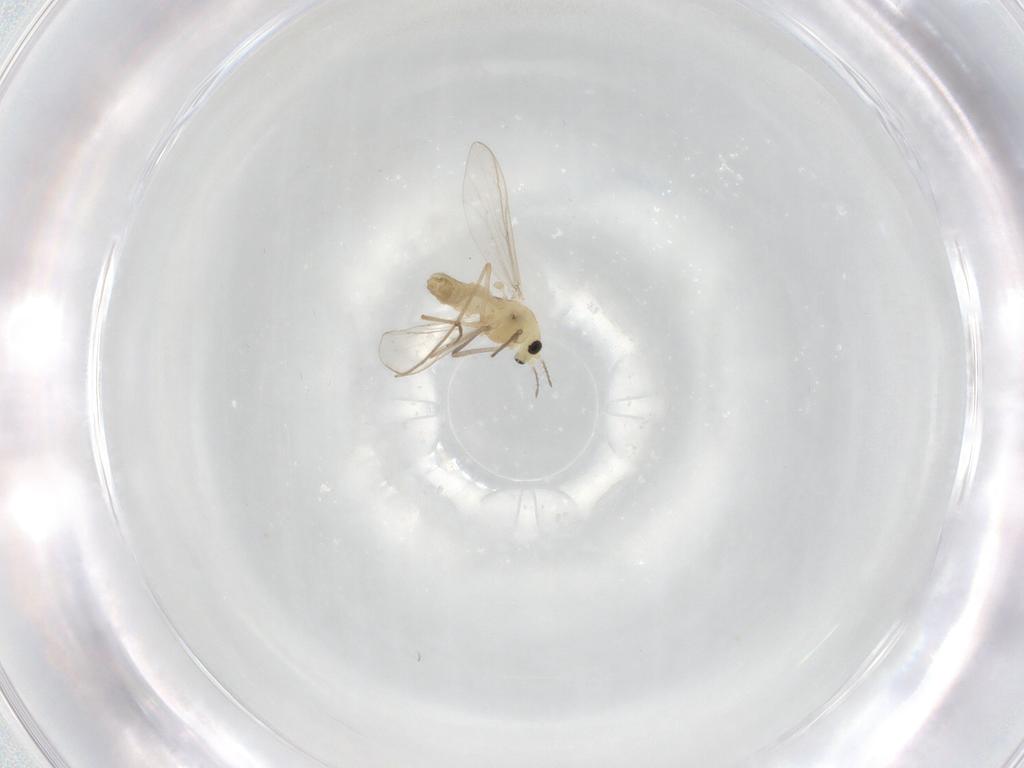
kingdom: Animalia
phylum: Arthropoda
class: Insecta
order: Diptera
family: Chironomidae
